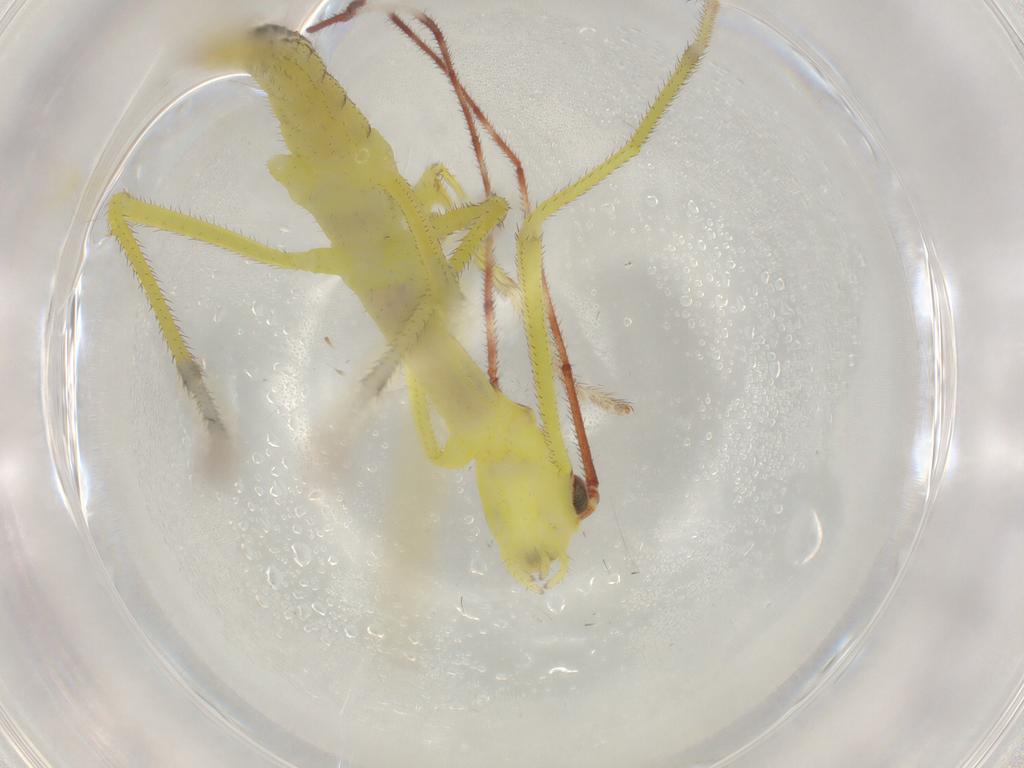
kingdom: Animalia
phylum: Arthropoda
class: Insecta
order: Phasmida
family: Agathemeridae
